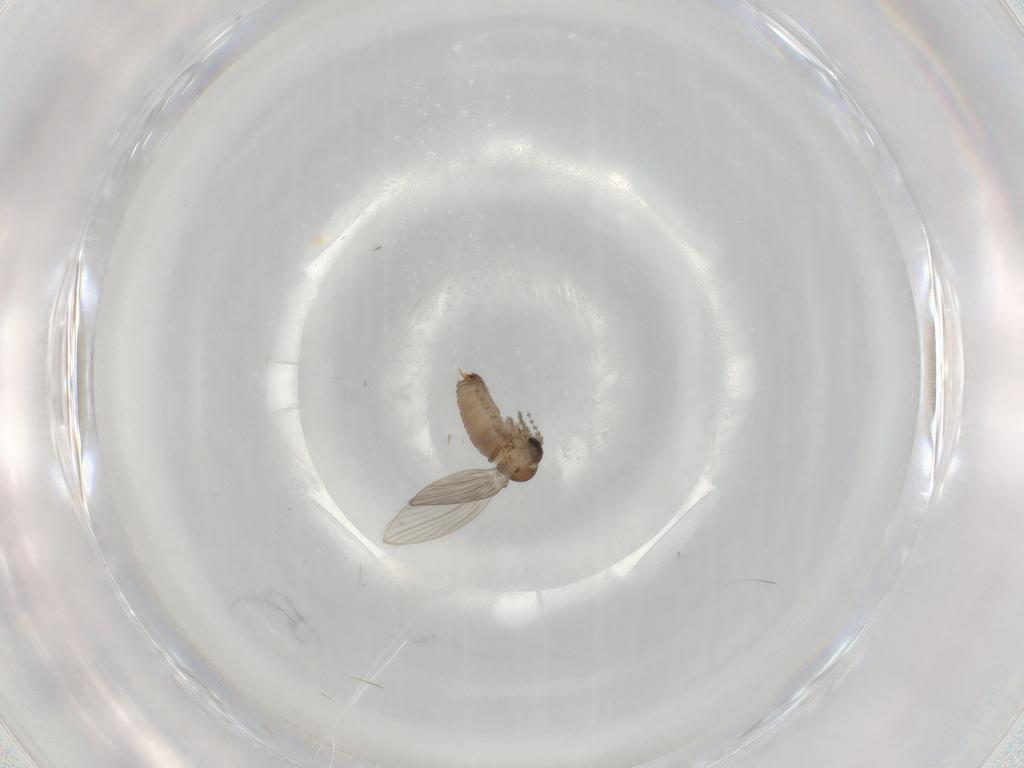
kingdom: Animalia
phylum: Arthropoda
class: Insecta
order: Diptera
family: Psychodidae
